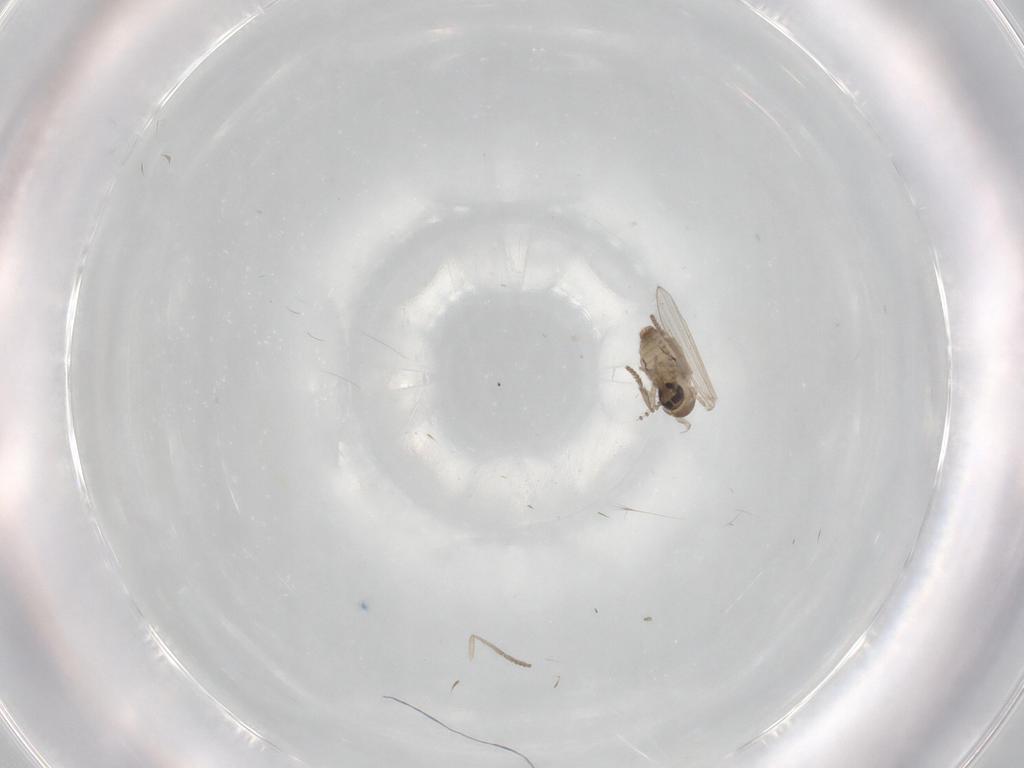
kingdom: Animalia
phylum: Arthropoda
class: Insecta
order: Diptera
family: Psychodidae
